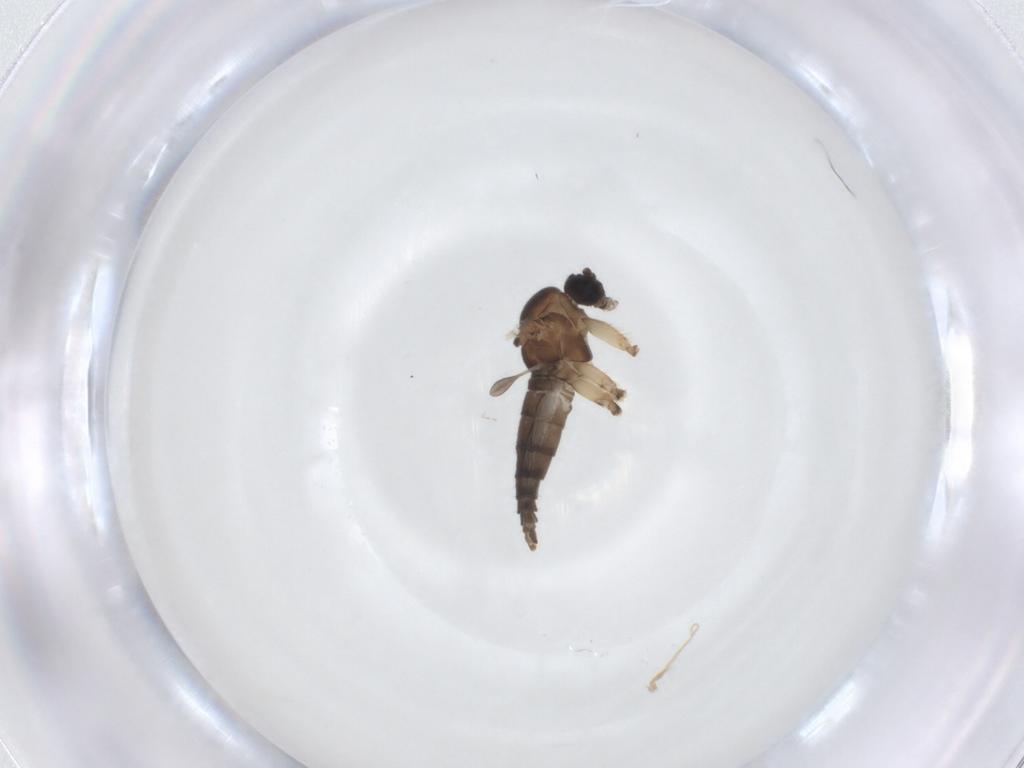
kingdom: Animalia
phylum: Arthropoda
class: Insecta
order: Diptera
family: Sciaridae
